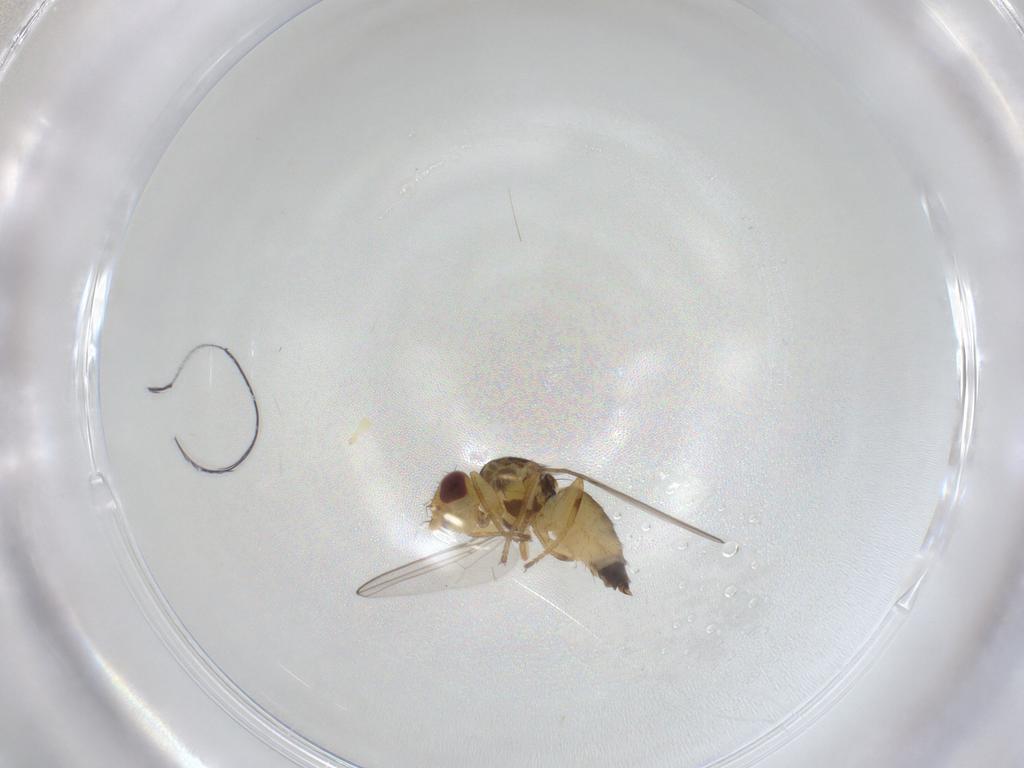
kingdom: Animalia
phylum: Arthropoda
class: Insecta
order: Diptera
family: Chloropidae
